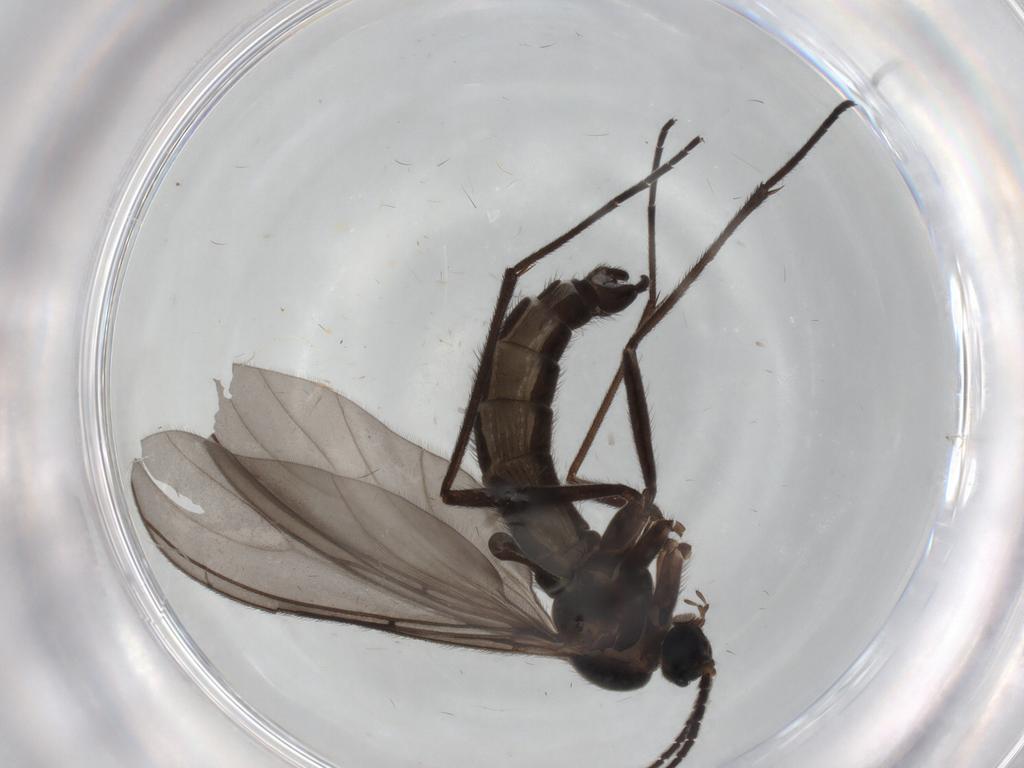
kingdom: Animalia
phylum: Arthropoda
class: Insecta
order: Diptera
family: Sciaridae
